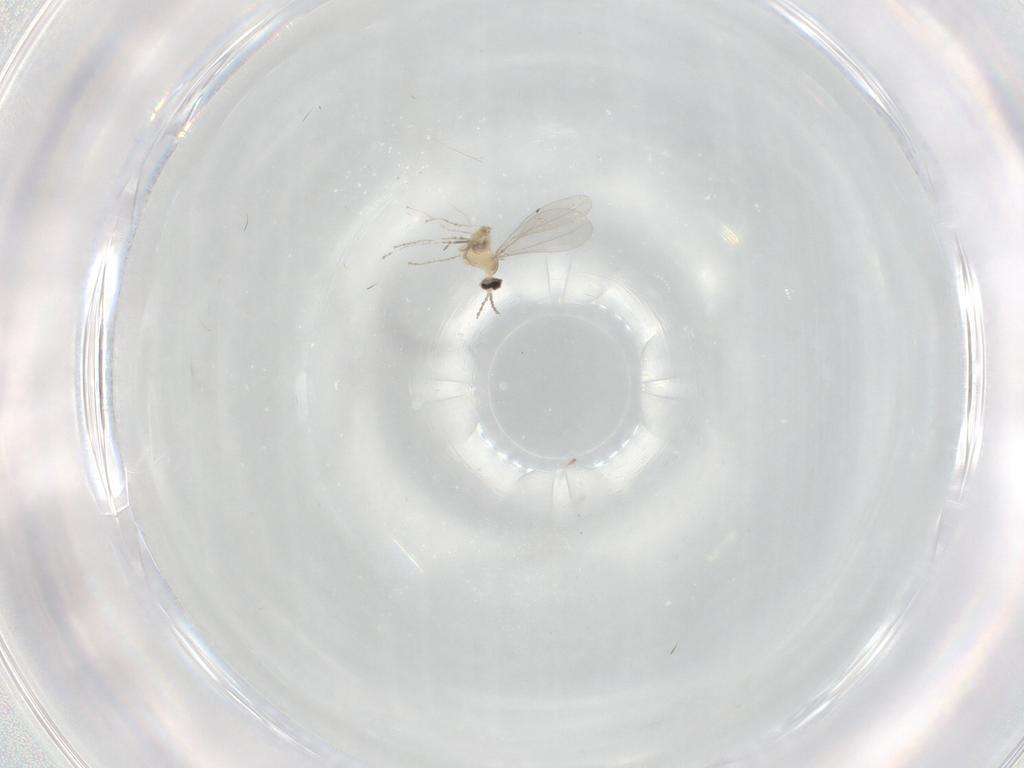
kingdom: Animalia
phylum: Arthropoda
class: Insecta
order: Diptera
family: Cecidomyiidae
